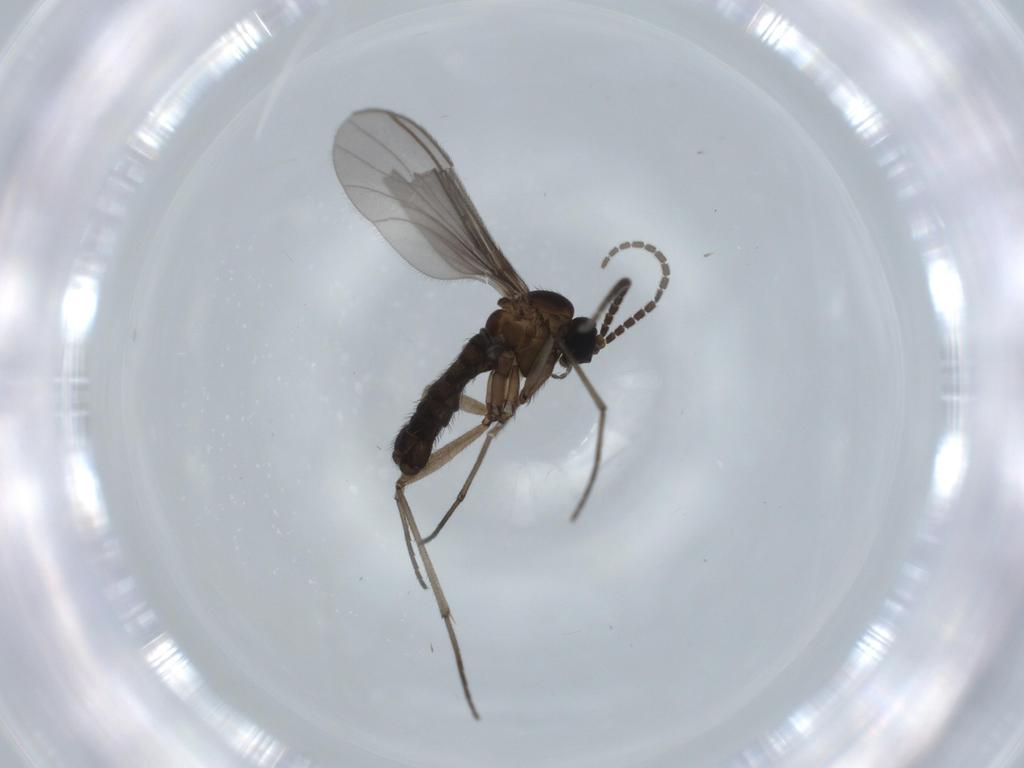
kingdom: Animalia
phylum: Arthropoda
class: Insecta
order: Diptera
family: Sciaridae
